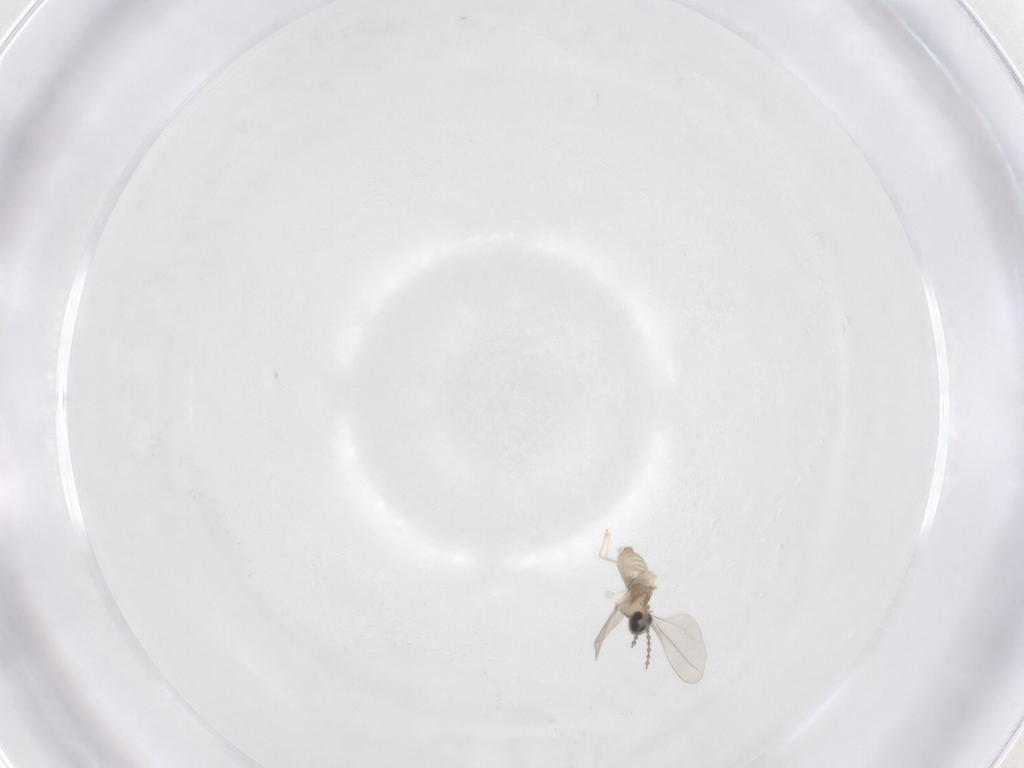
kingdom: Animalia
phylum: Arthropoda
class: Insecta
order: Diptera
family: Cecidomyiidae
